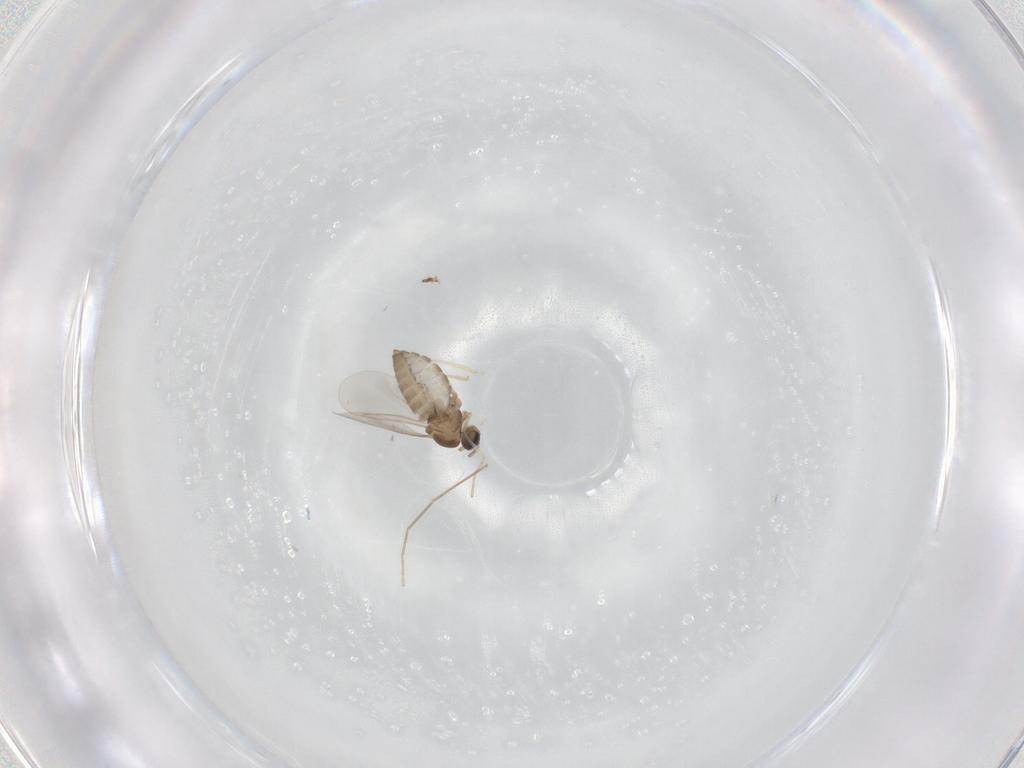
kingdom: Animalia
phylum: Arthropoda
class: Insecta
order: Diptera
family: Cecidomyiidae
